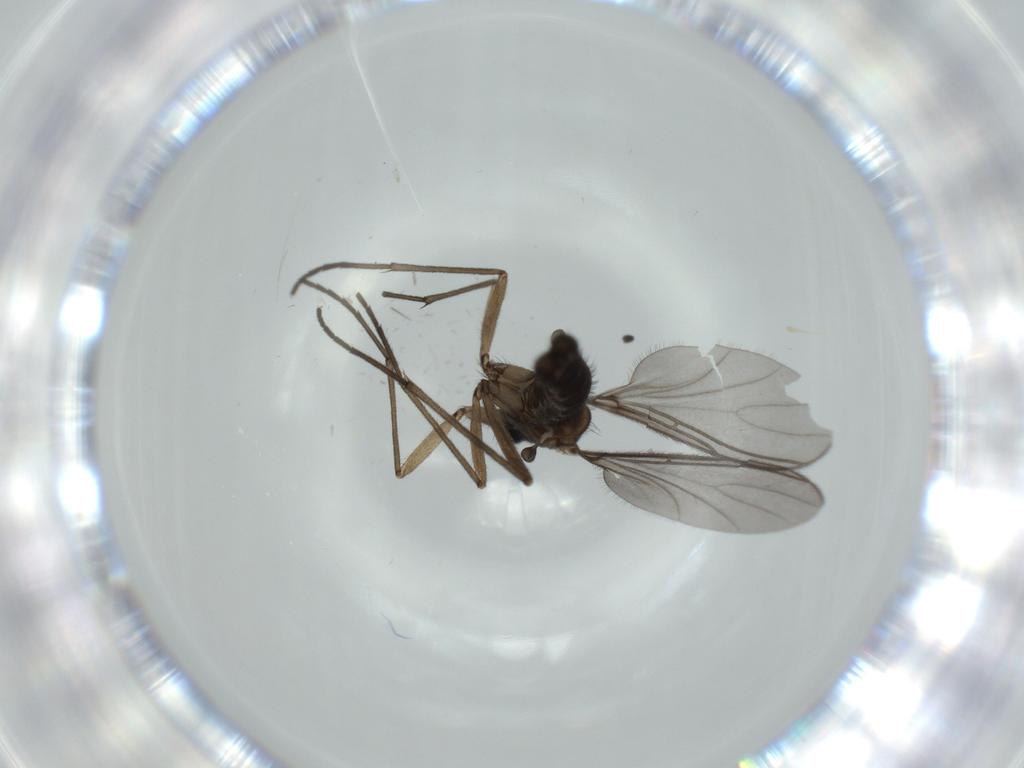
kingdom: Animalia
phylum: Arthropoda
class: Insecta
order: Diptera
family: Sciaridae
